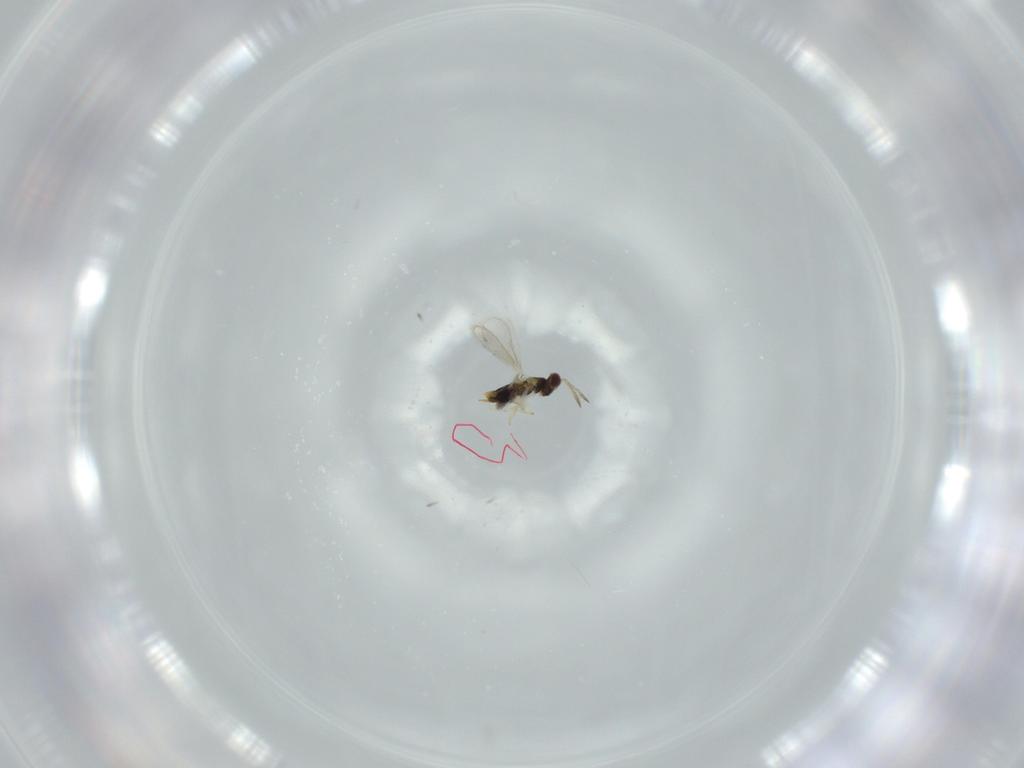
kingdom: Animalia
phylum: Arthropoda
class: Insecta
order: Hymenoptera
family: Aphelinidae
